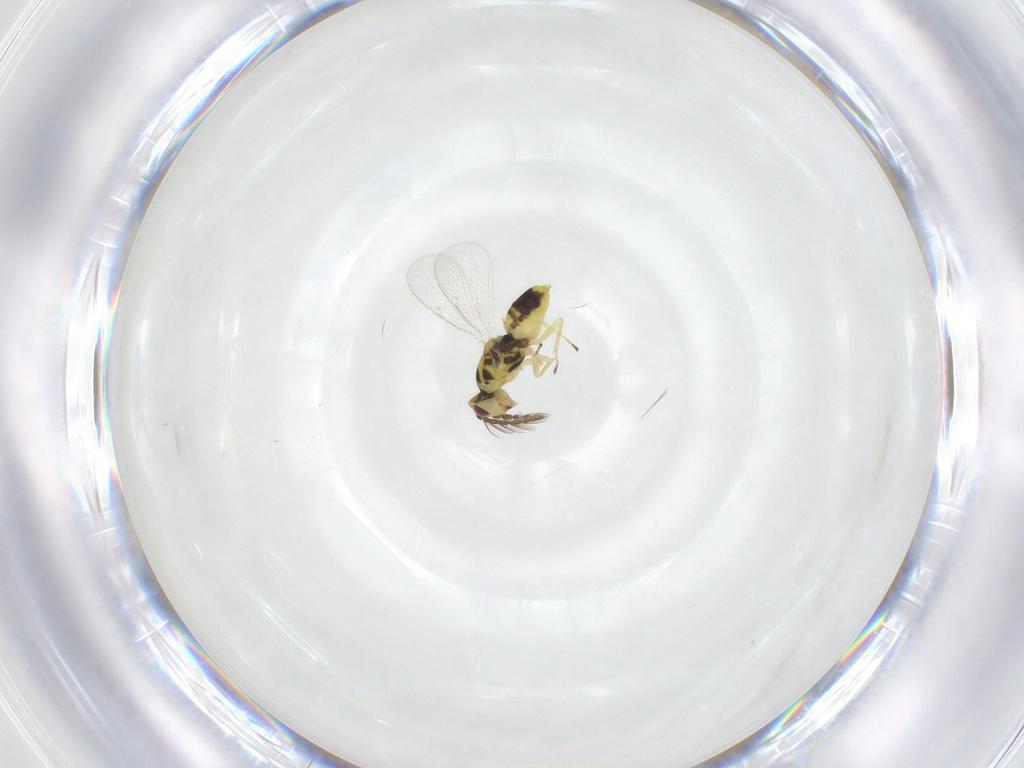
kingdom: Animalia
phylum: Arthropoda
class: Insecta
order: Hymenoptera
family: Eulophidae
